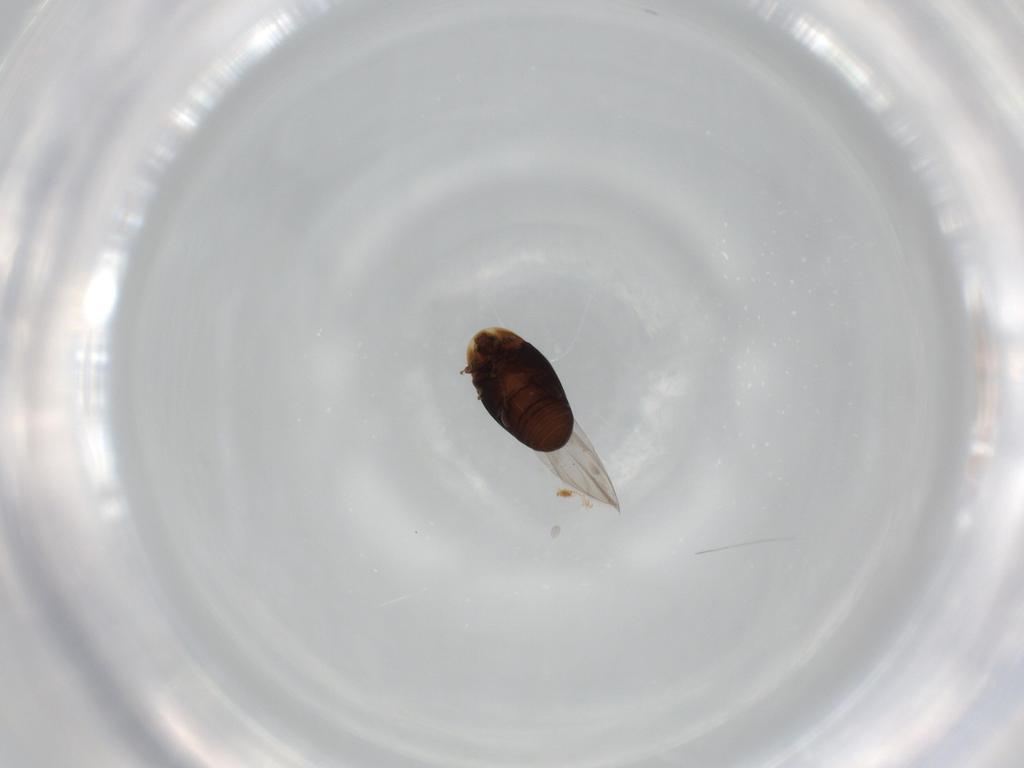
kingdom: Animalia
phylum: Arthropoda
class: Insecta
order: Coleoptera
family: Corylophidae
